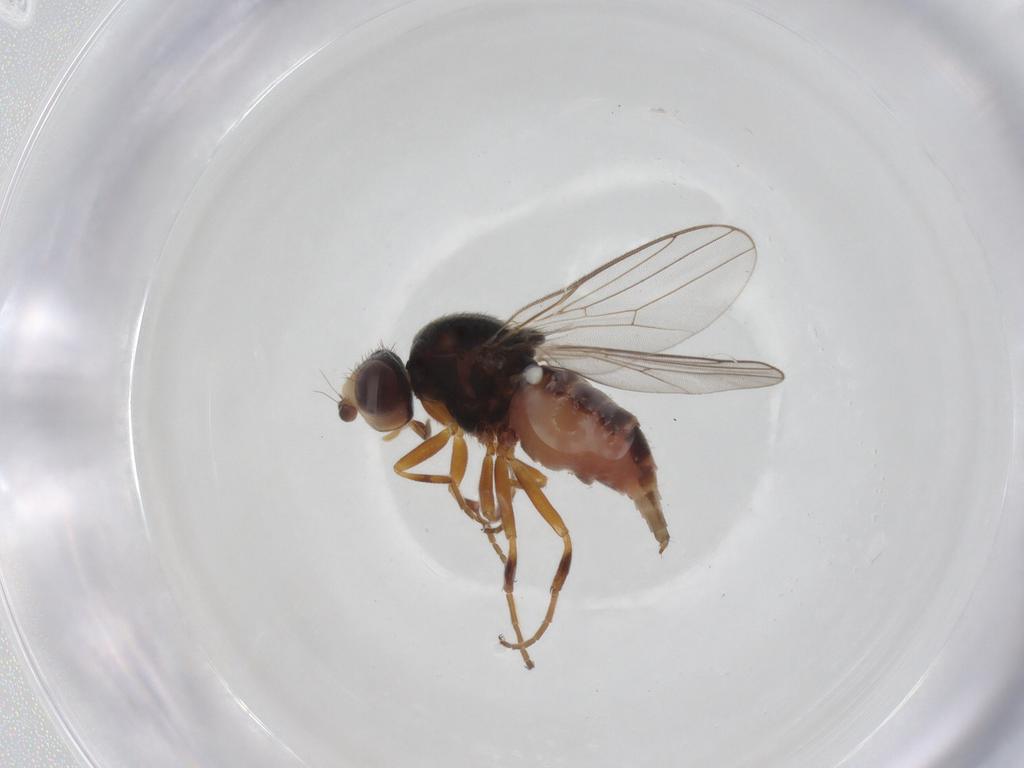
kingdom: Animalia
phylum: Arthropoda
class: Insecta
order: Diptera
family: Chloropidae
